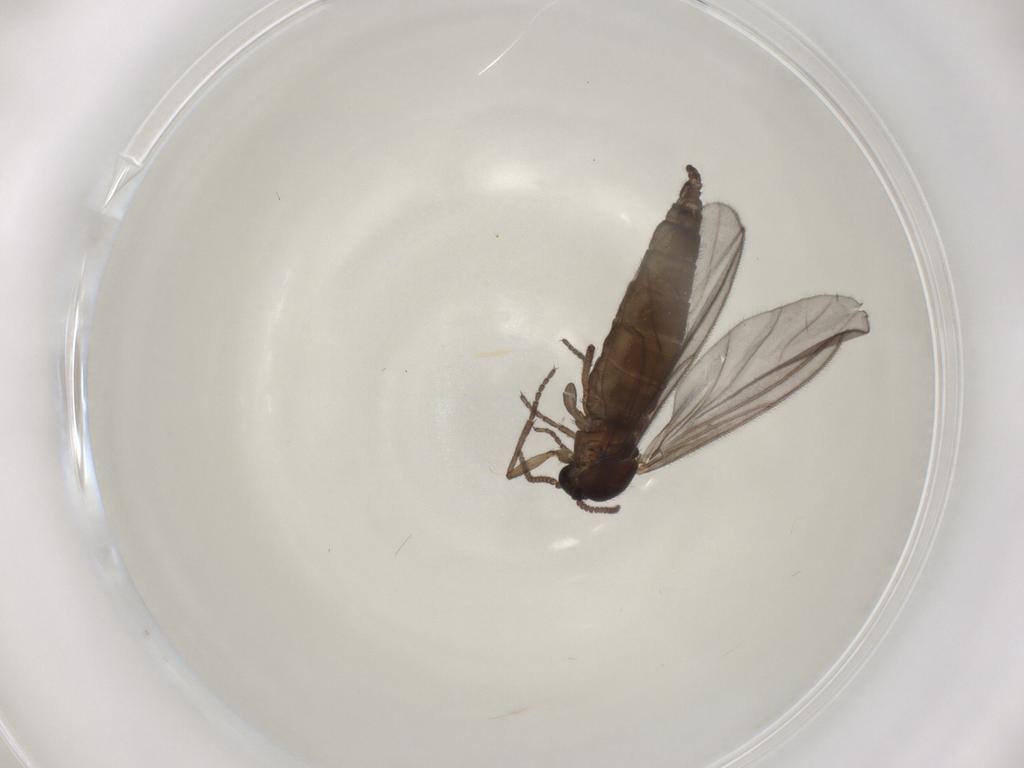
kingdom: Animalia
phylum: Arthropoda
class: Insecta
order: Diptera
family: Sciaridae
